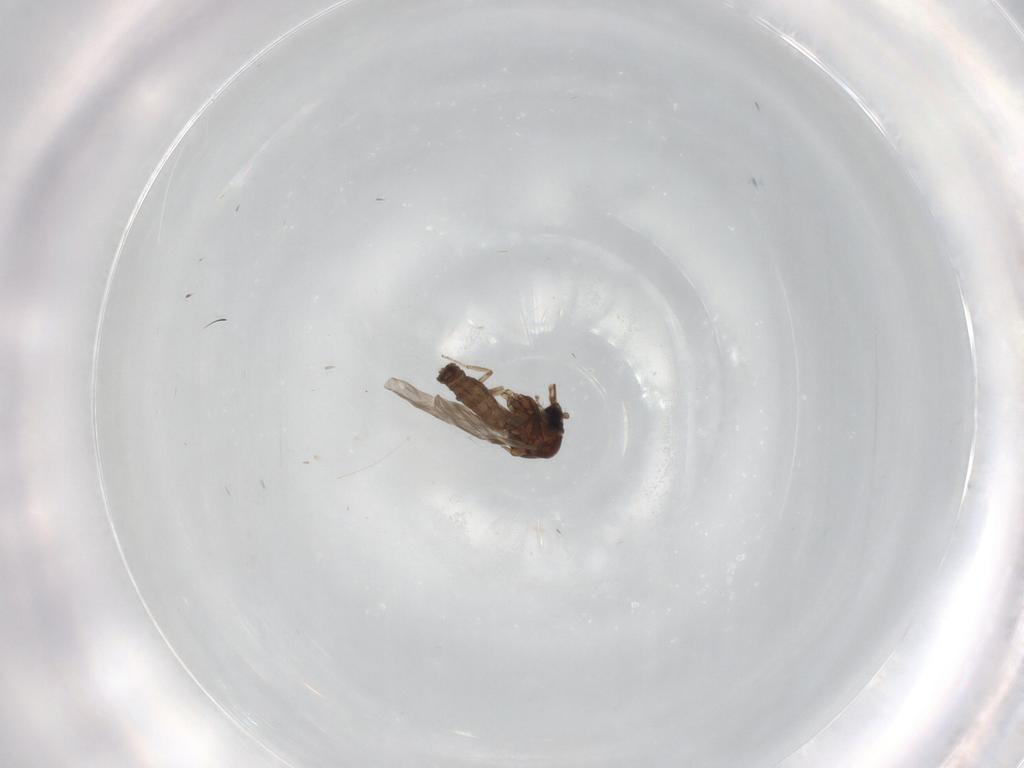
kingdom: Animalia
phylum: Arthropoda
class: Insecta
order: Diptera
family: Ceratopogonidae
